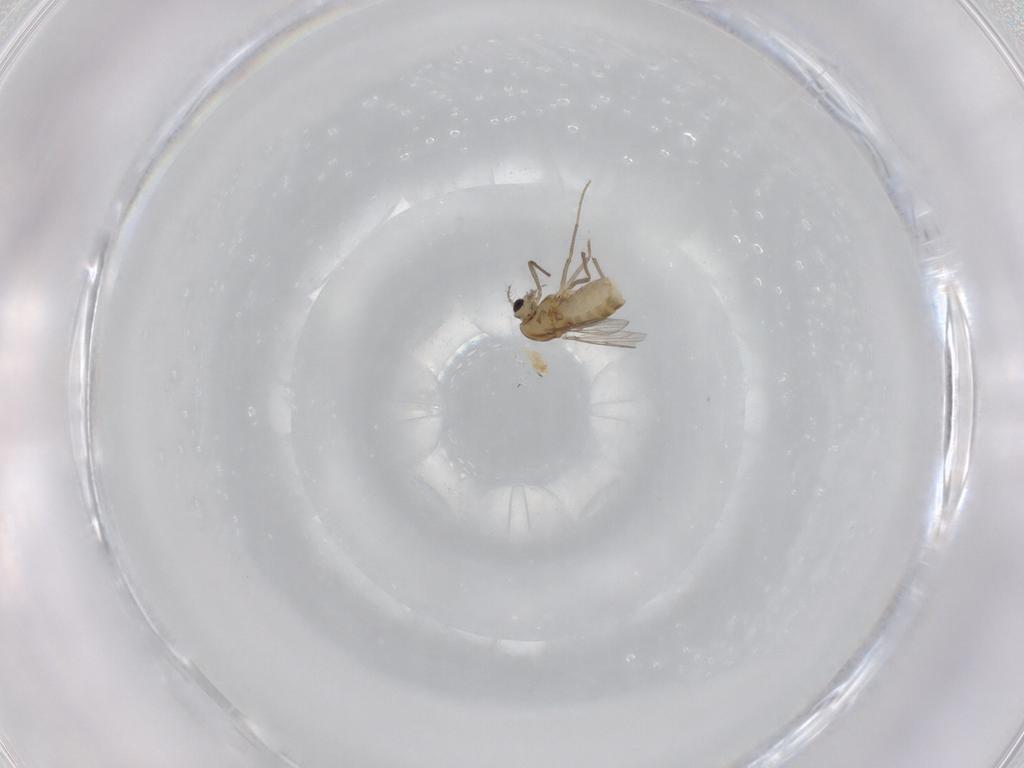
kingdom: Animalia
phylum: Arthropoda
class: Insecta
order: Diptera
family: Chironomidae
